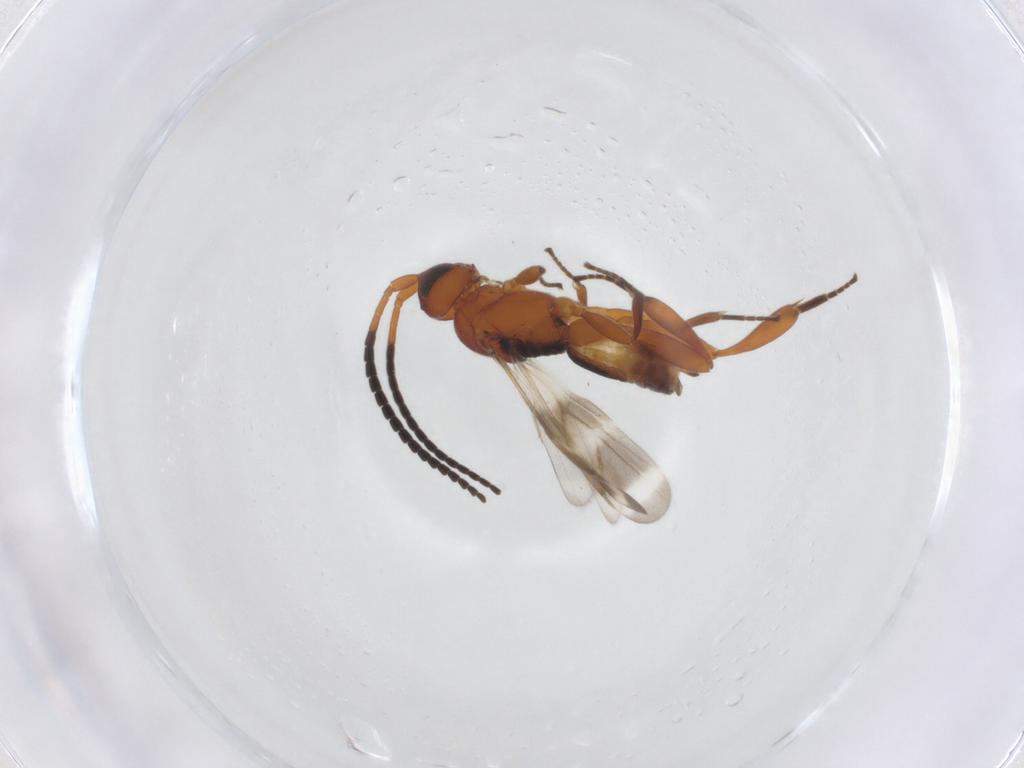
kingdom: Animalia
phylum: Arthropoda
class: Insecta
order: Hymenoptera
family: Braconidae
